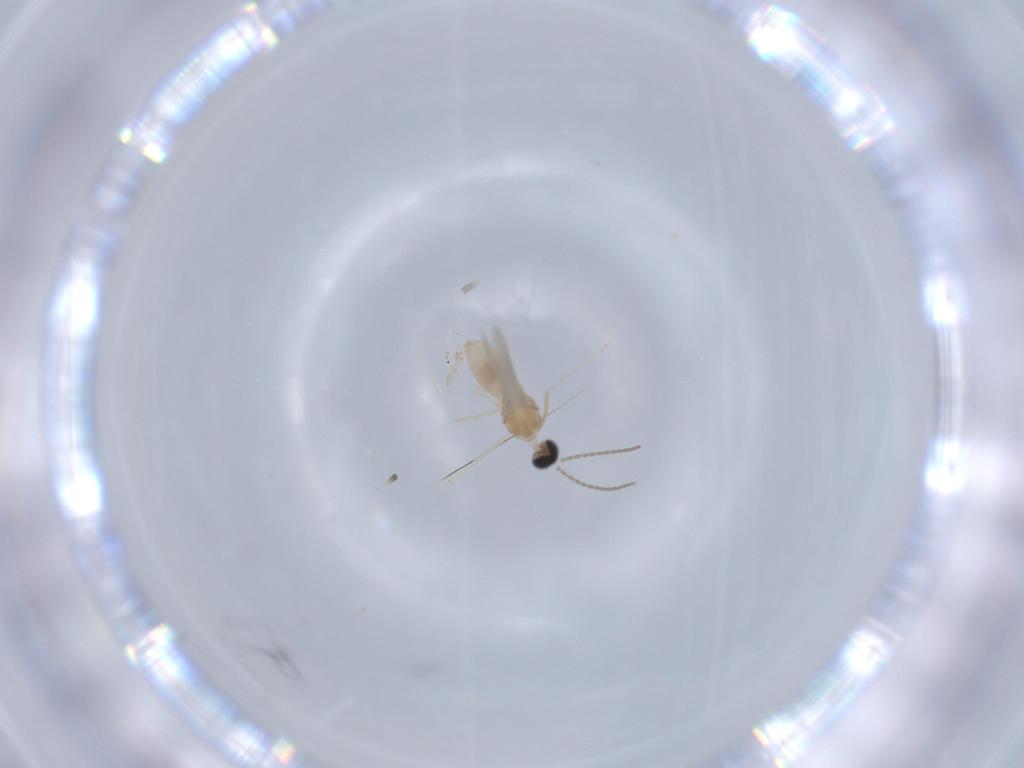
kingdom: Animalia
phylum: Arthropoda
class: Insecta
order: Diptera
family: Cecidomyiidae
